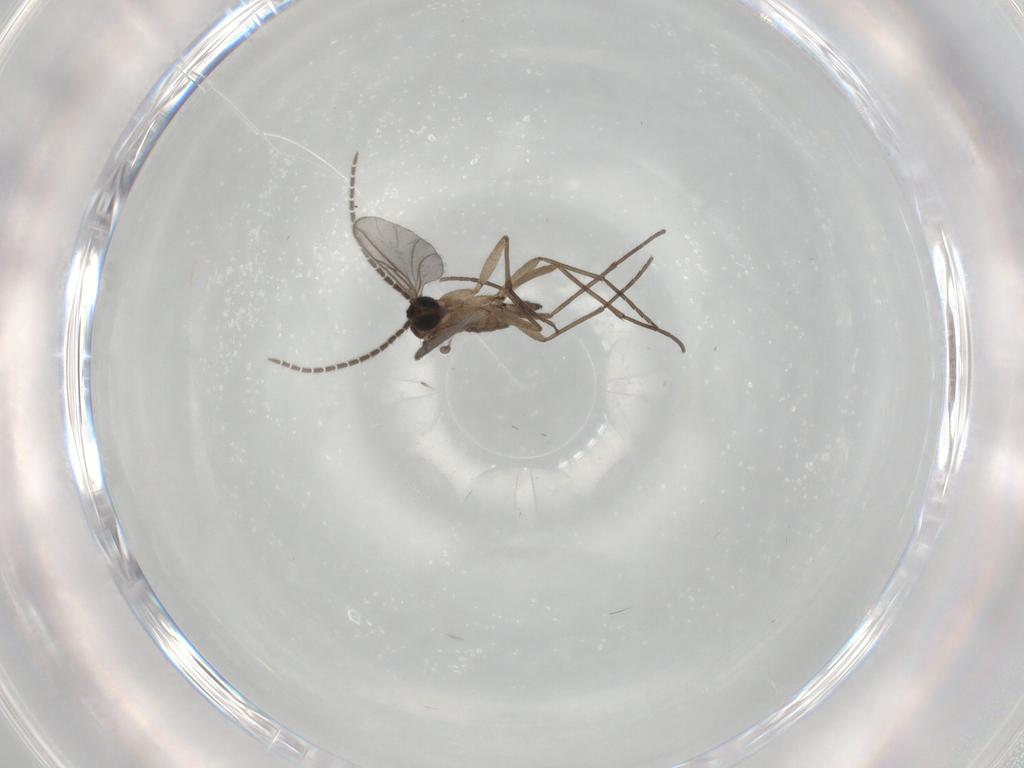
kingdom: Animalia
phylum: Arthropoda
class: Insecta
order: Diptera
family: Sciaridae
